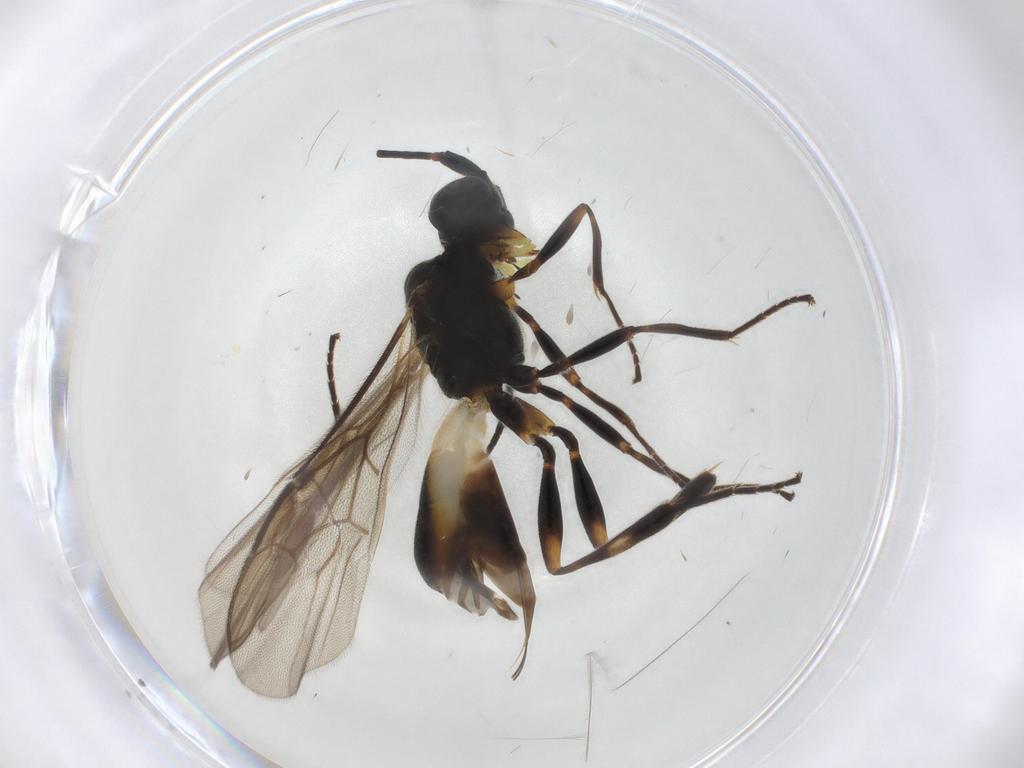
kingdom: Animalia
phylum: Arthropoda
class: Insecta
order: Hymenoptera
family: Braconidae
